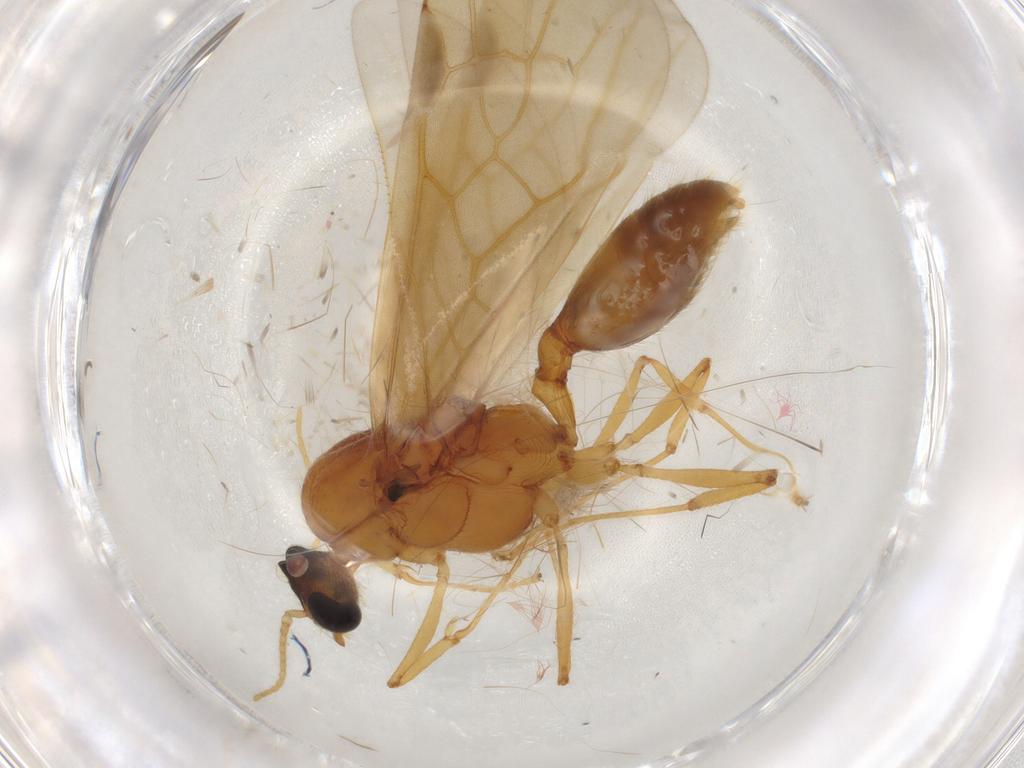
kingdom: Animalia
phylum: Arthropoda
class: Insecta
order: Hymenoptera
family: Formicidae
